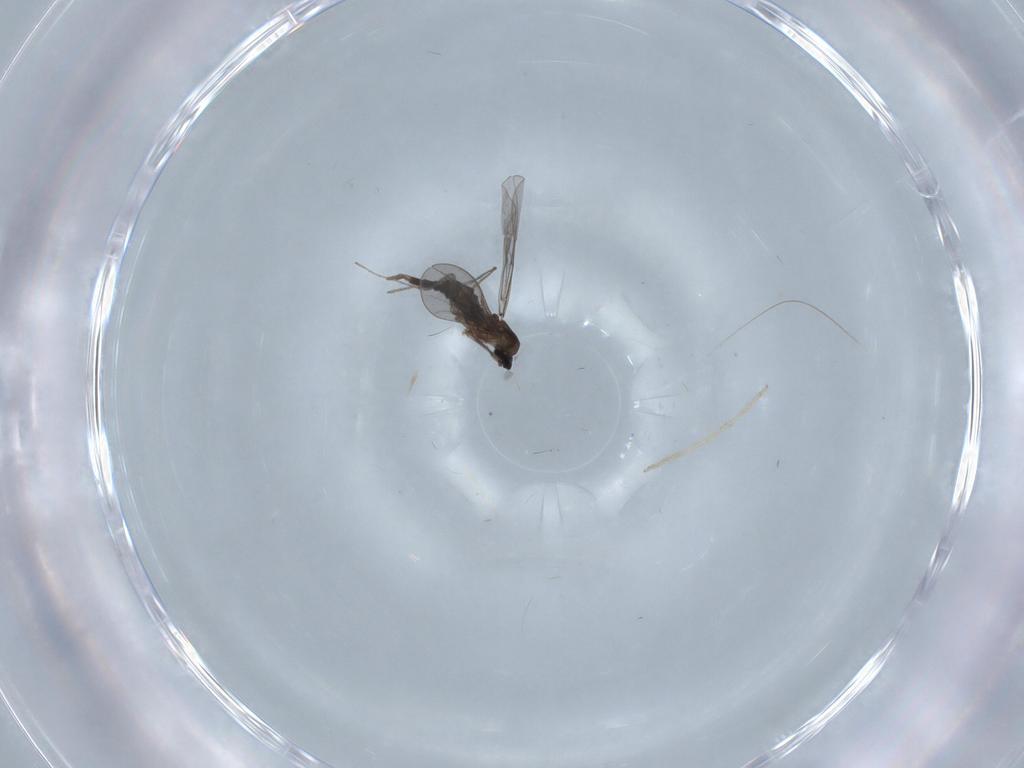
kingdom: Animalia
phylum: Arthropoda
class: Insecta
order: Diptera
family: Chironomidae
